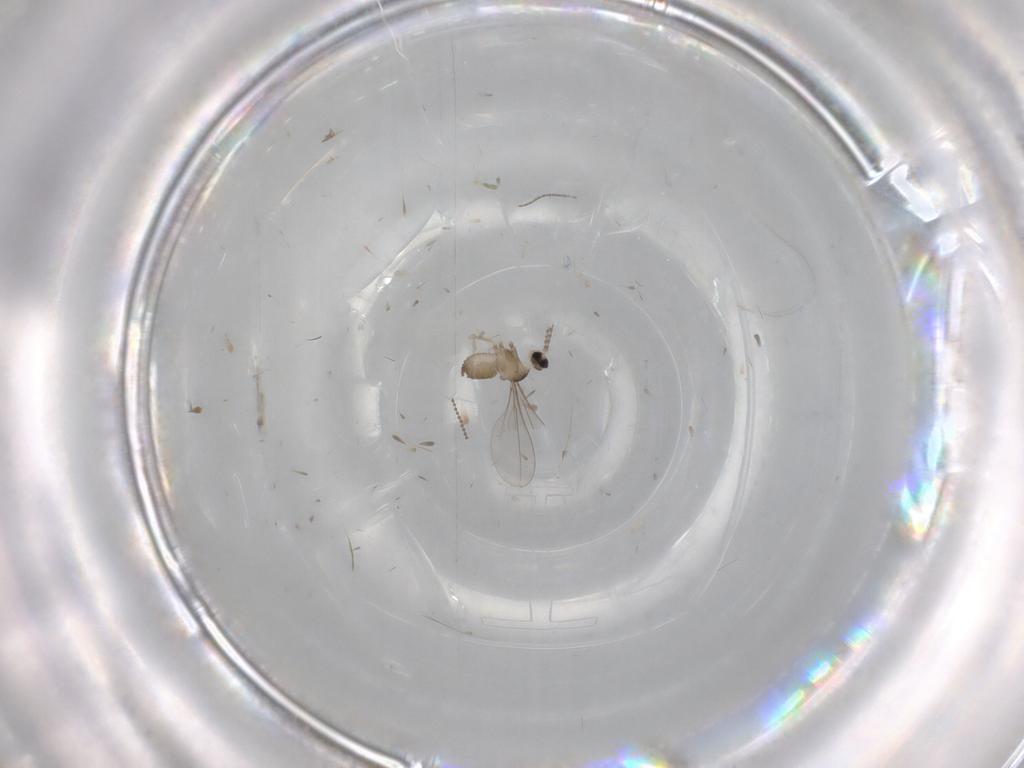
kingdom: Animalia
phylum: Arthropoda
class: Insecta
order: Diptera
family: Cecidomyiidae
